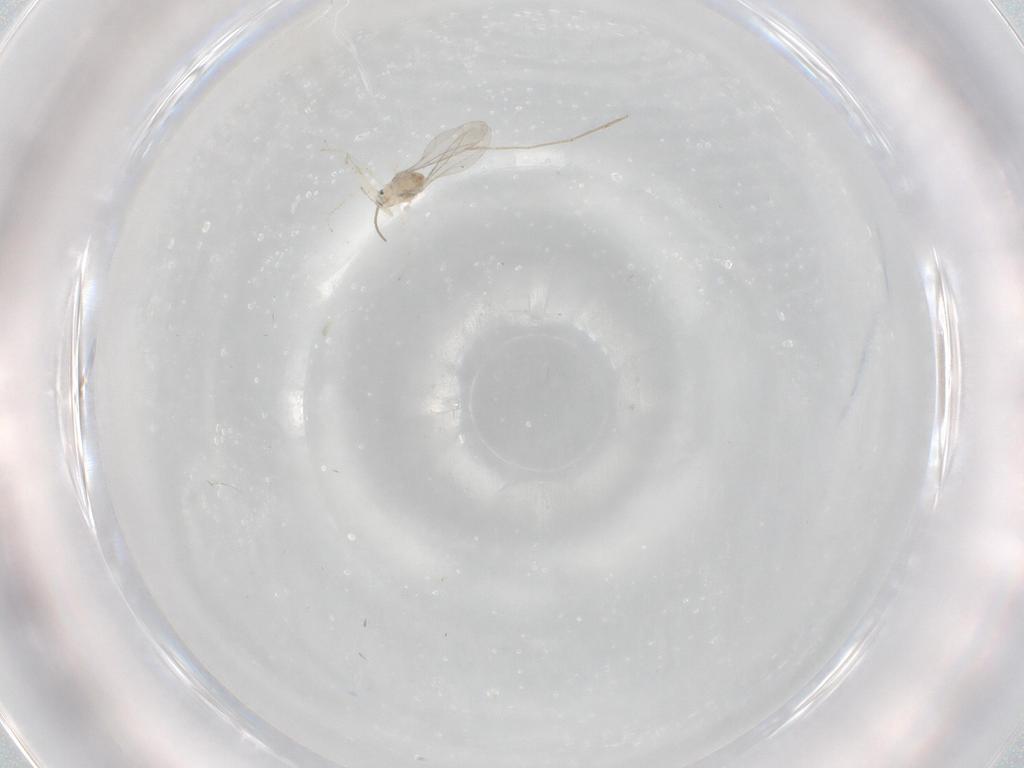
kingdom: Animalia
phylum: Arthropoda
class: Insecta
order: Diptera
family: Cecidomyiidae
